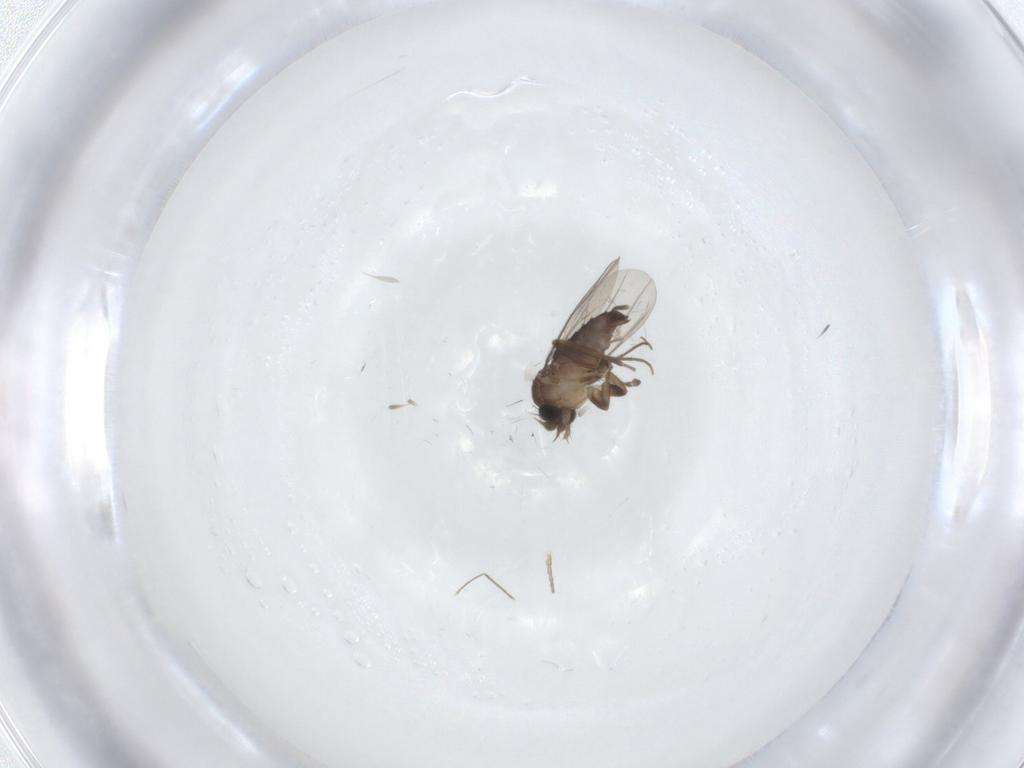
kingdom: Animalia
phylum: Arthropoda
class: Insecta
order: Diptera
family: Phoridae
